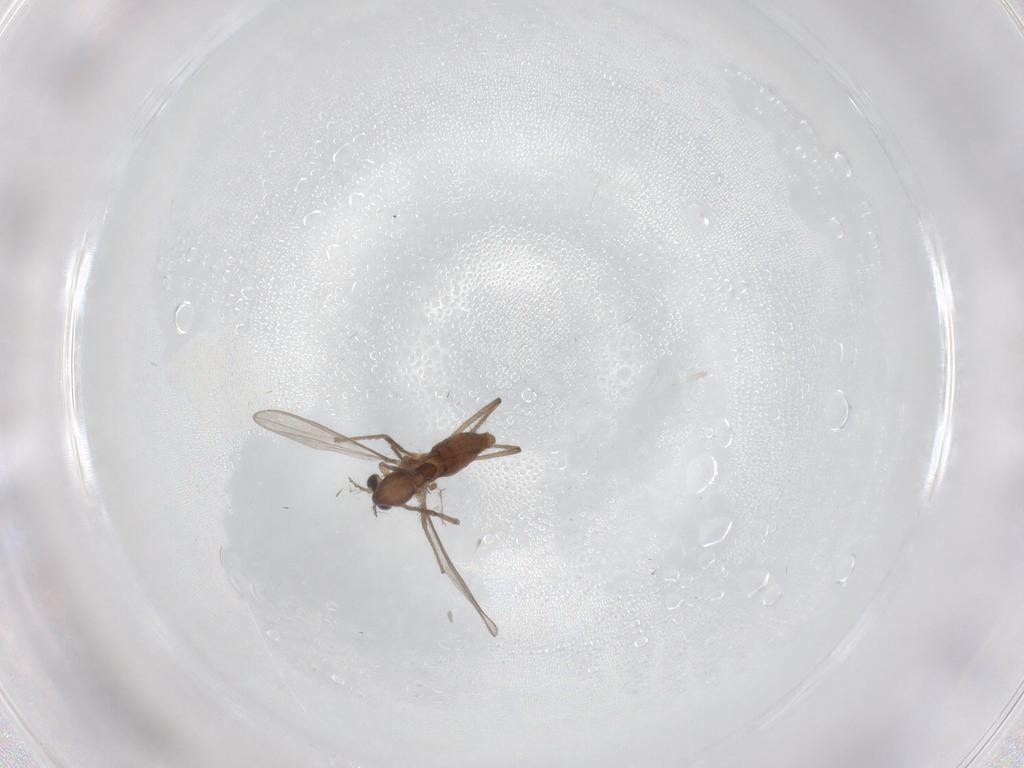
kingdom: Animalia
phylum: Arthropoda
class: Insecta
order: Diptera
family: Chironomidae
